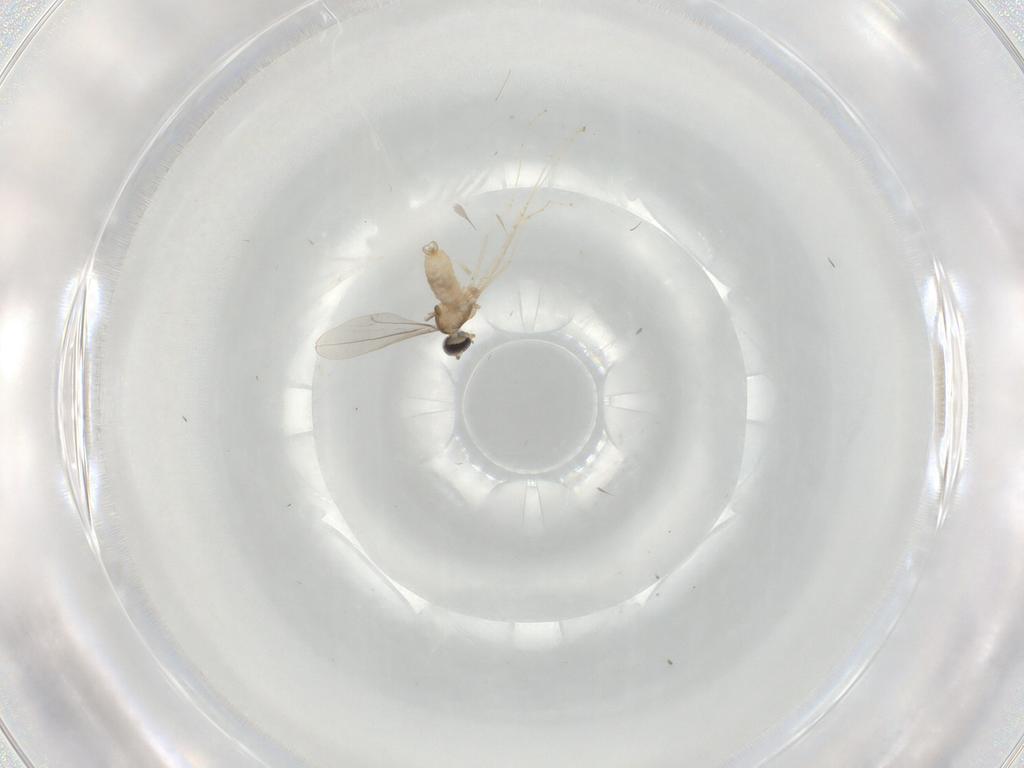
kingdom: Animalia
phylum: Arthropoda
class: Insecta
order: Diptera
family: Cecidomyiidae
